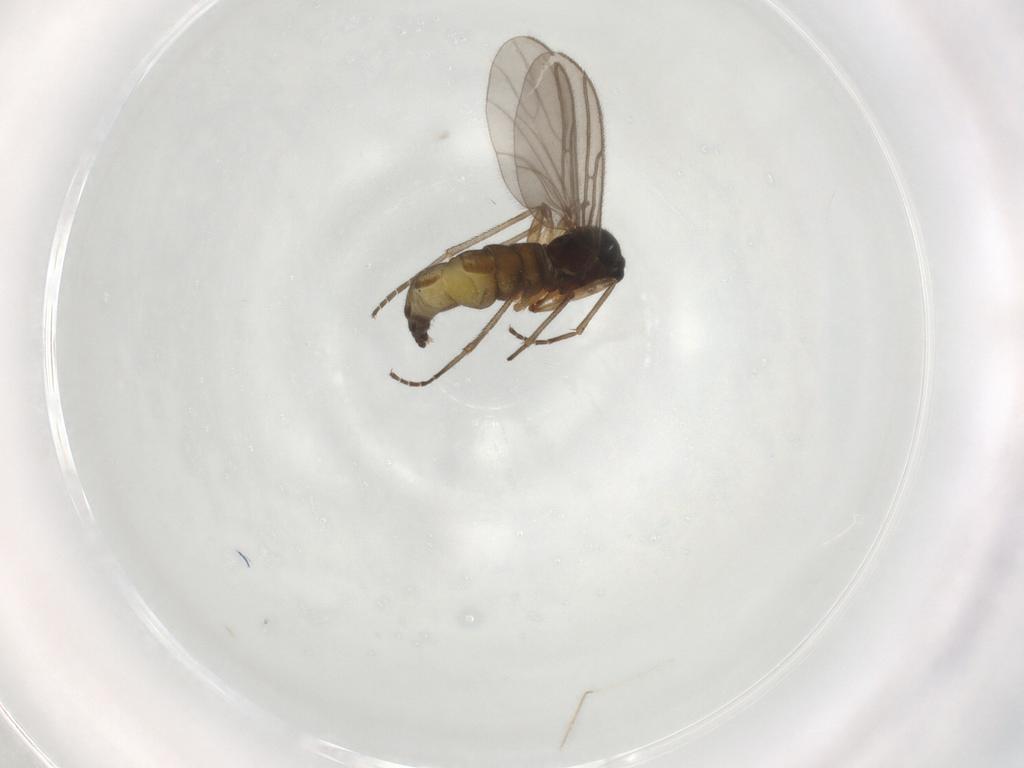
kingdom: Animalia
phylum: Arthropoda
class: Insecta
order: Diptera
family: Sciaridae
